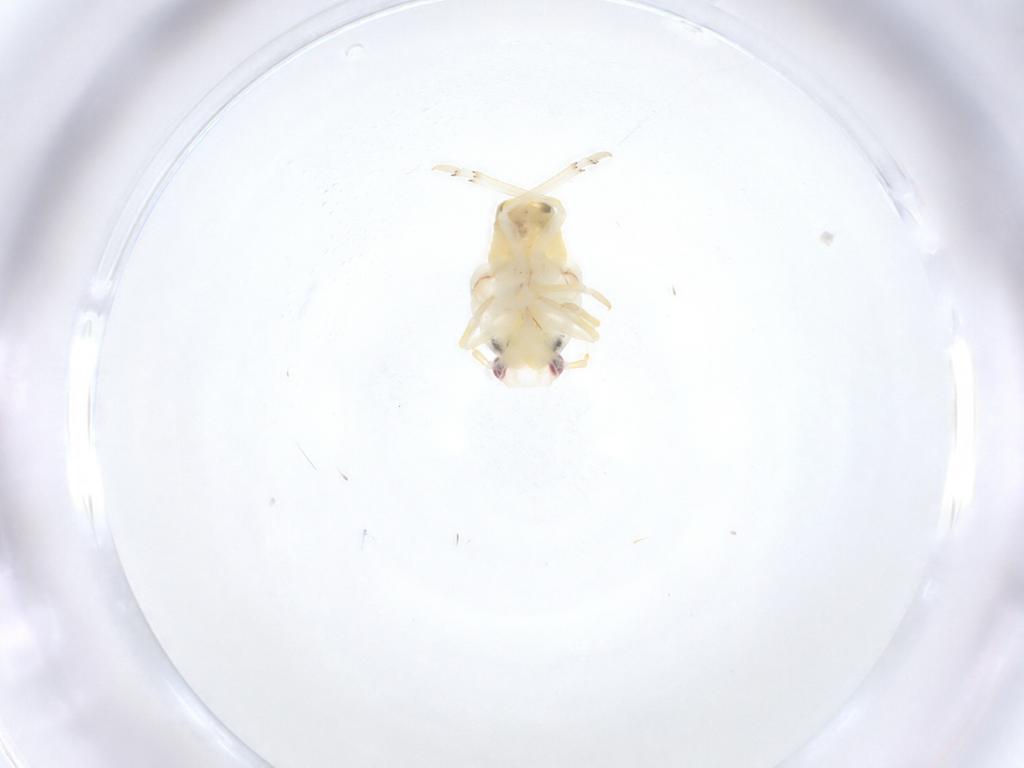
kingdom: Animalia
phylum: Arthropoda
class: Insecta
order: Hemiptera
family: Flatidae
